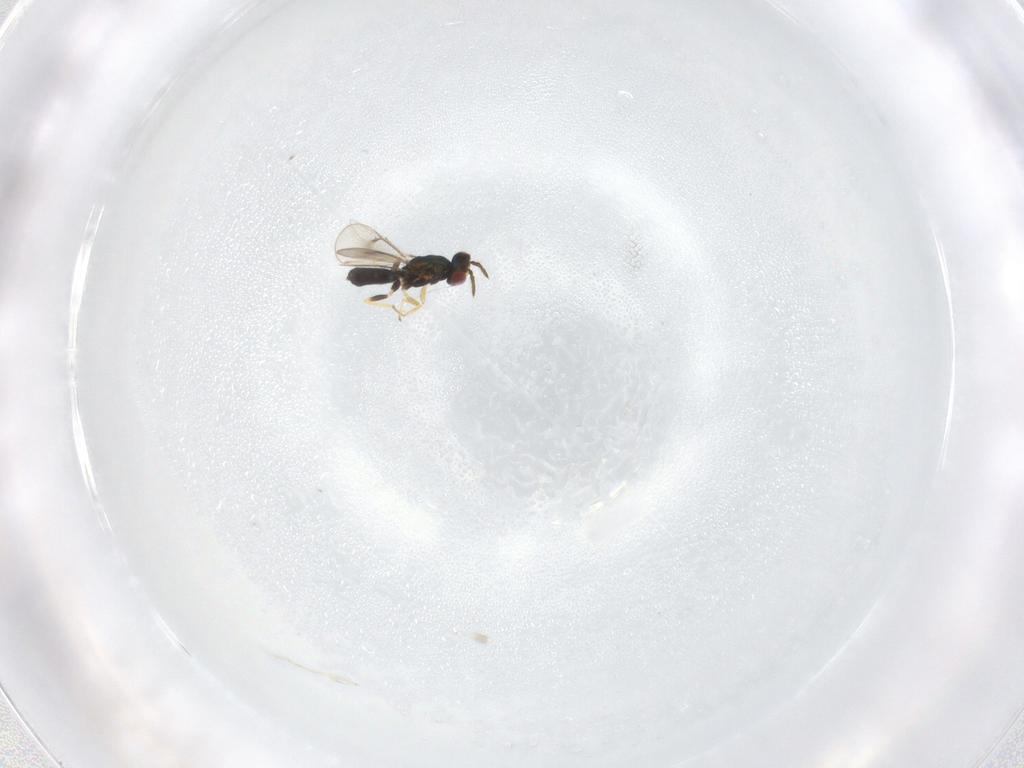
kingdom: Animalia
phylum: Arthropoda
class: Insecta
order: Hymenoptera
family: Eulophidae
